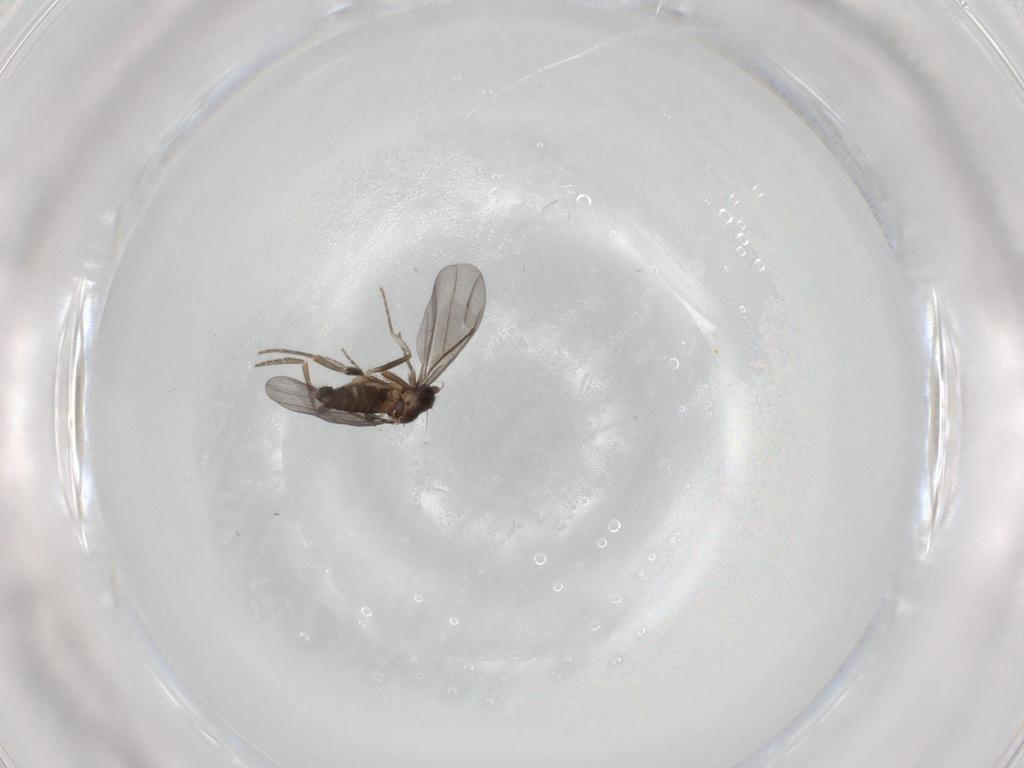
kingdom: Animalia
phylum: Arthropoda
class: Insecta
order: Diptera
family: Phoridae
